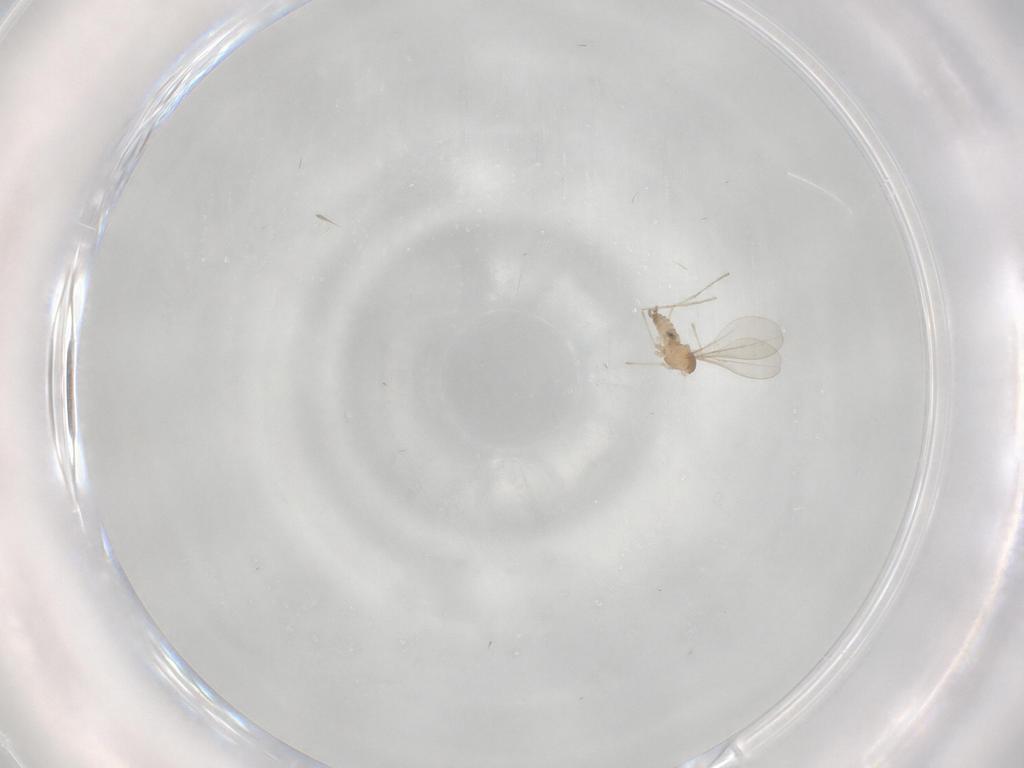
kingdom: Animalia
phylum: Arthropoda
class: Insecta
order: Diptera
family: Cecidomyiidae
